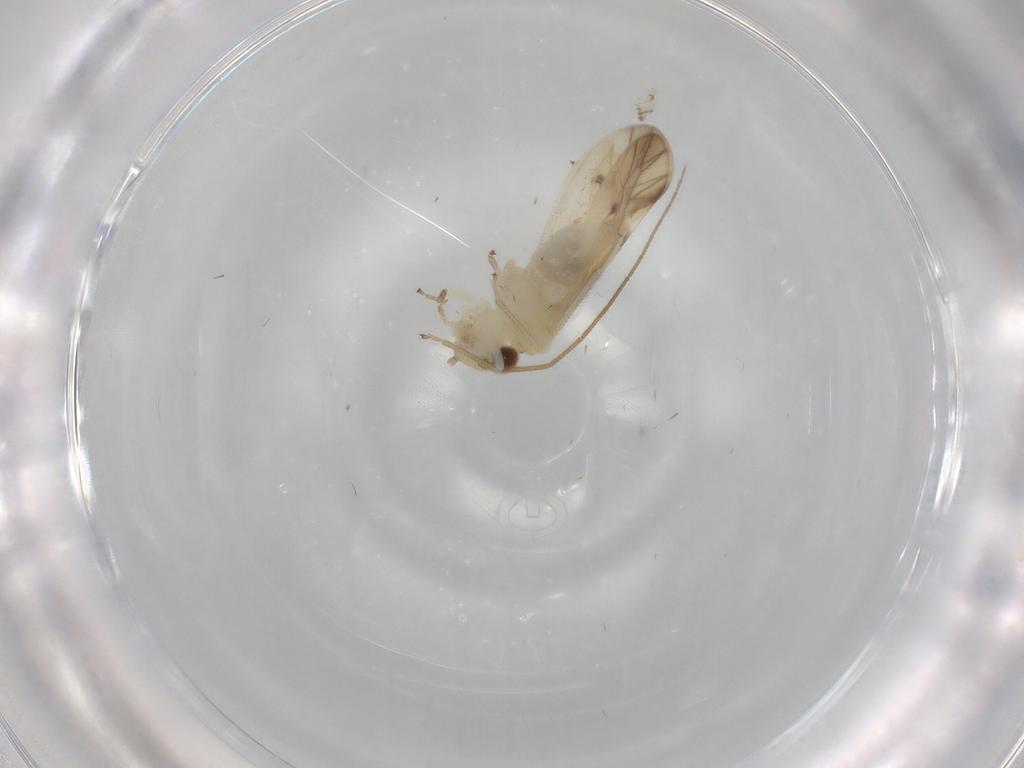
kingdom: Animalia
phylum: Arthropoda
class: Insecta
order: Psocodea
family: Caeciliusidae
